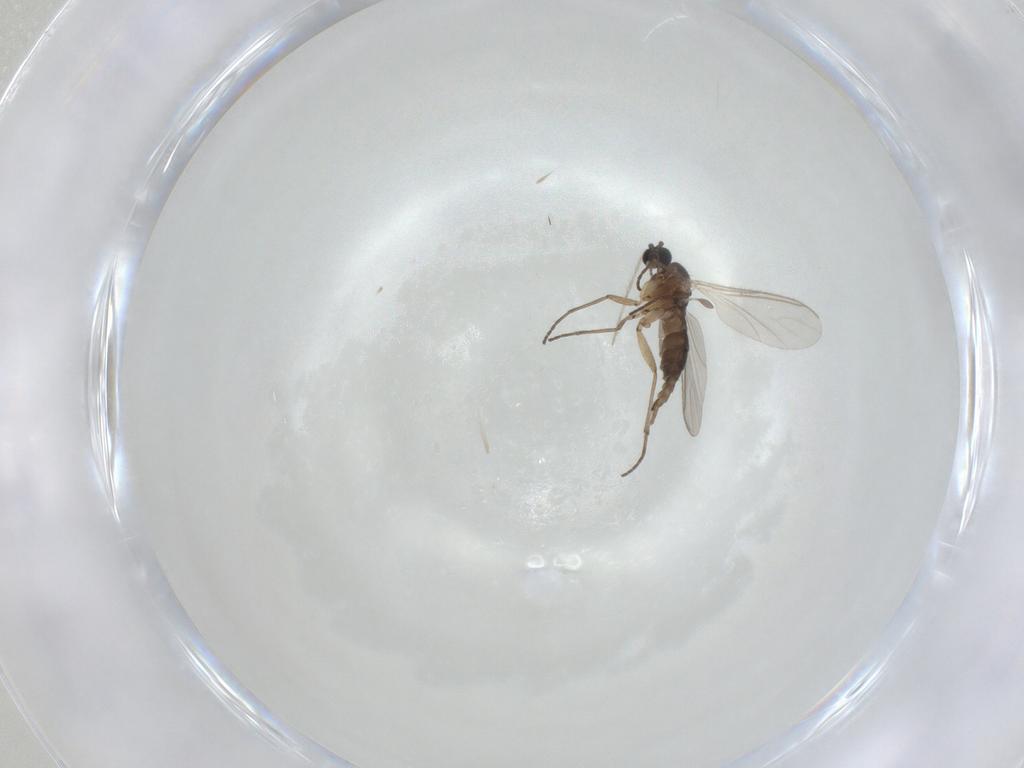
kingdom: Animalia
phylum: Arthropoda
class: Insecta
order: Diptera
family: Sciaridae
